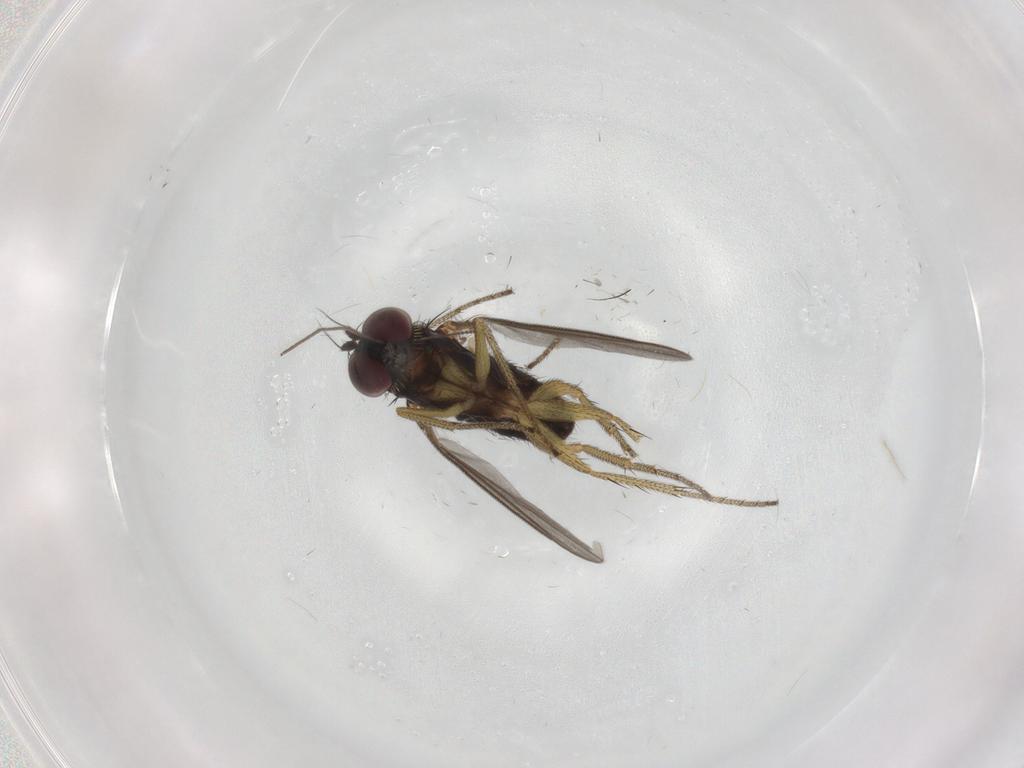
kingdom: Animalia
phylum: Arthropoda
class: Insecta
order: Diptera
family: Chironomidae
